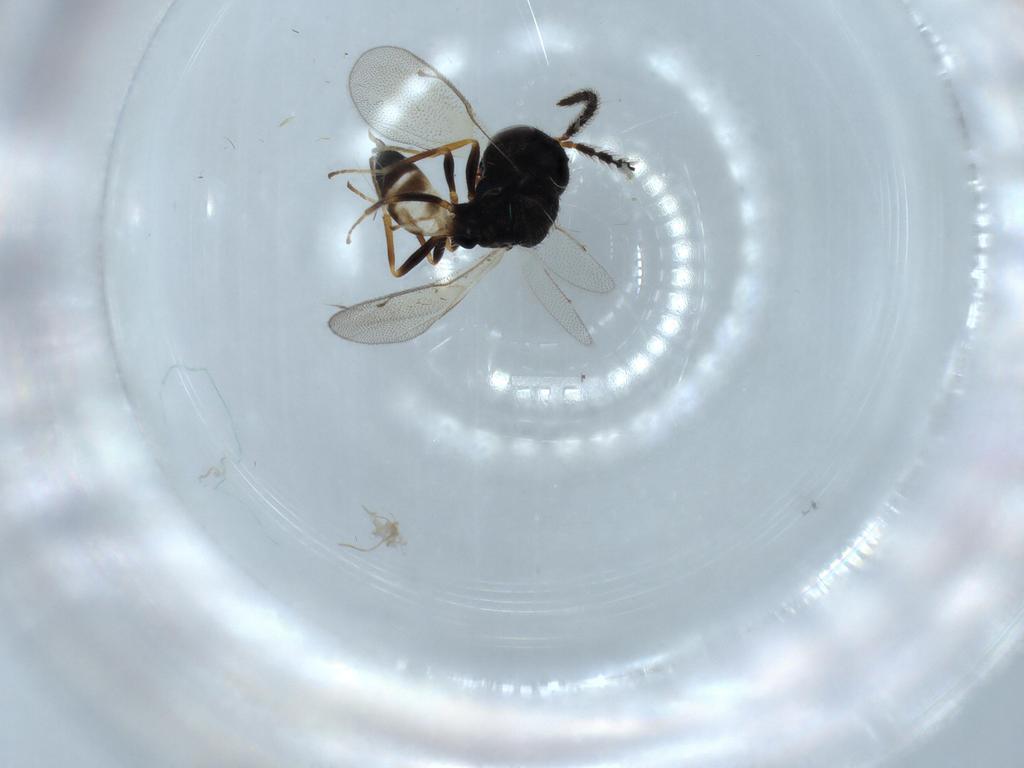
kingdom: Animalia
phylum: Arthropoda
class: Insecta
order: Hymenoptera
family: Pteromalidae
